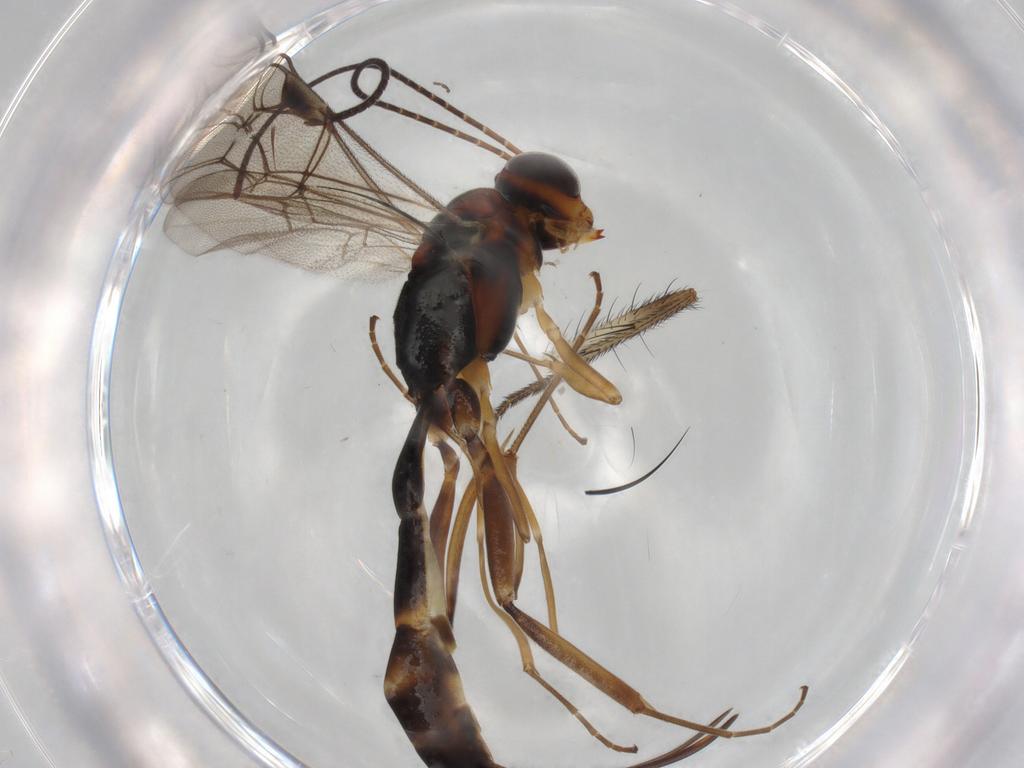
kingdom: Animalia
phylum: Arthropoda
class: Insecta
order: Hymenoptera
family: Ichneumonidae
